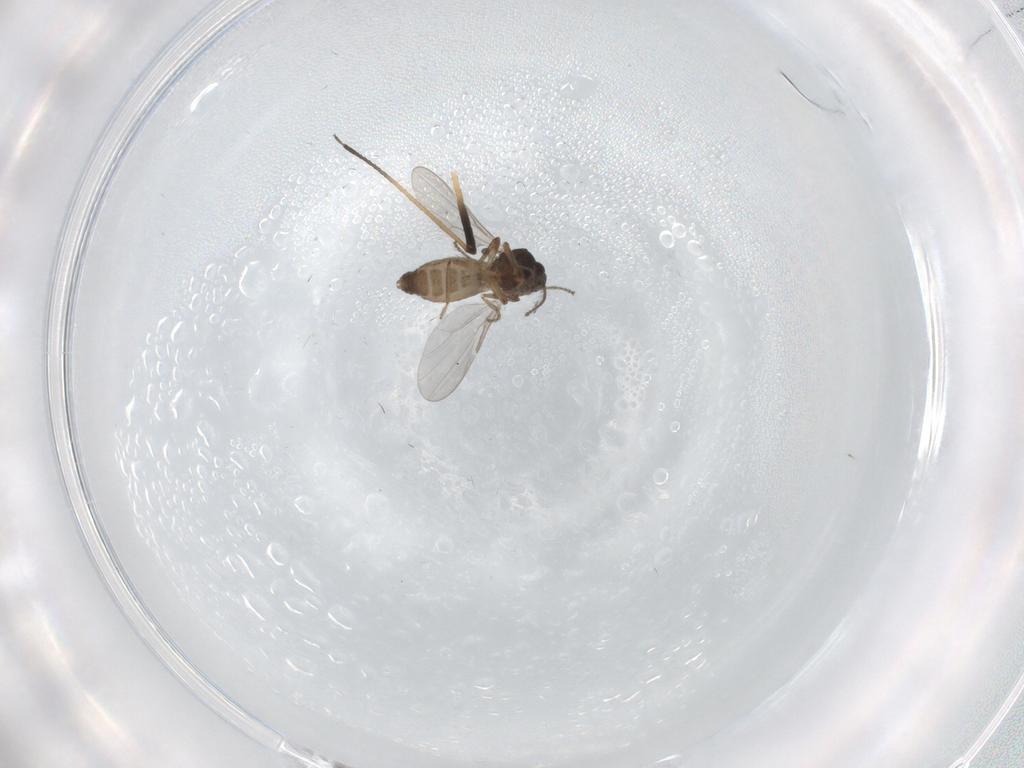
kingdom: Animalia
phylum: Arthropoda
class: Insecta
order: Diptera
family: Ceratopogonidae
